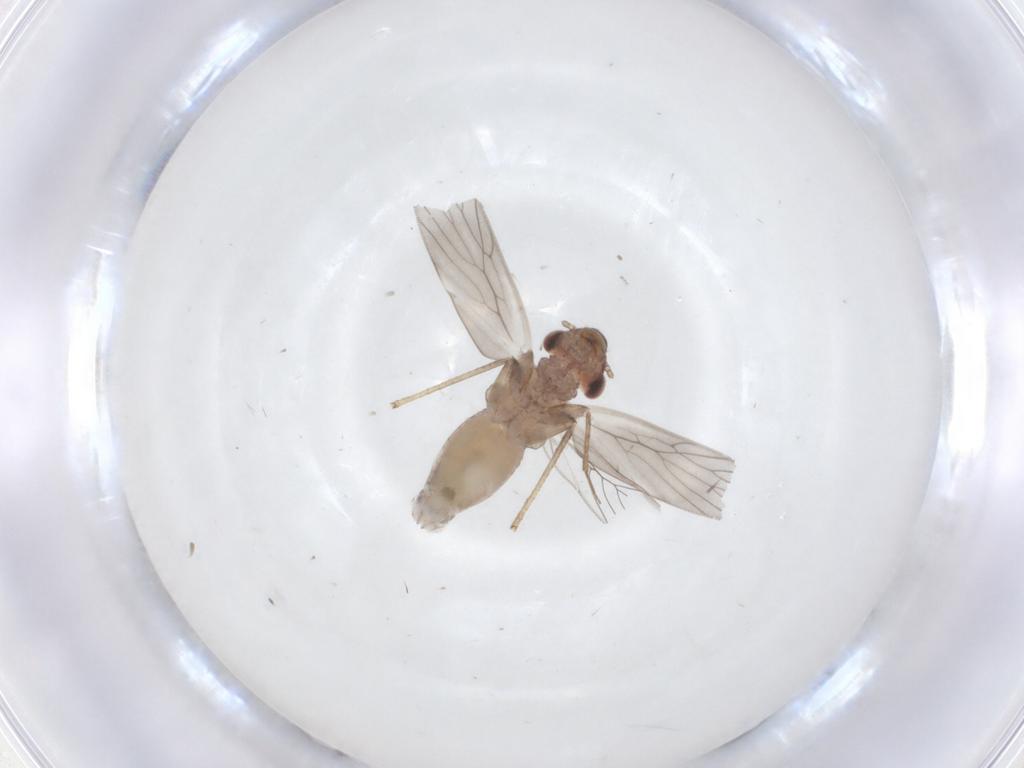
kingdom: Animalia
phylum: Arthropoda
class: Insecta
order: Psocodea
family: Lepidopsocidae
